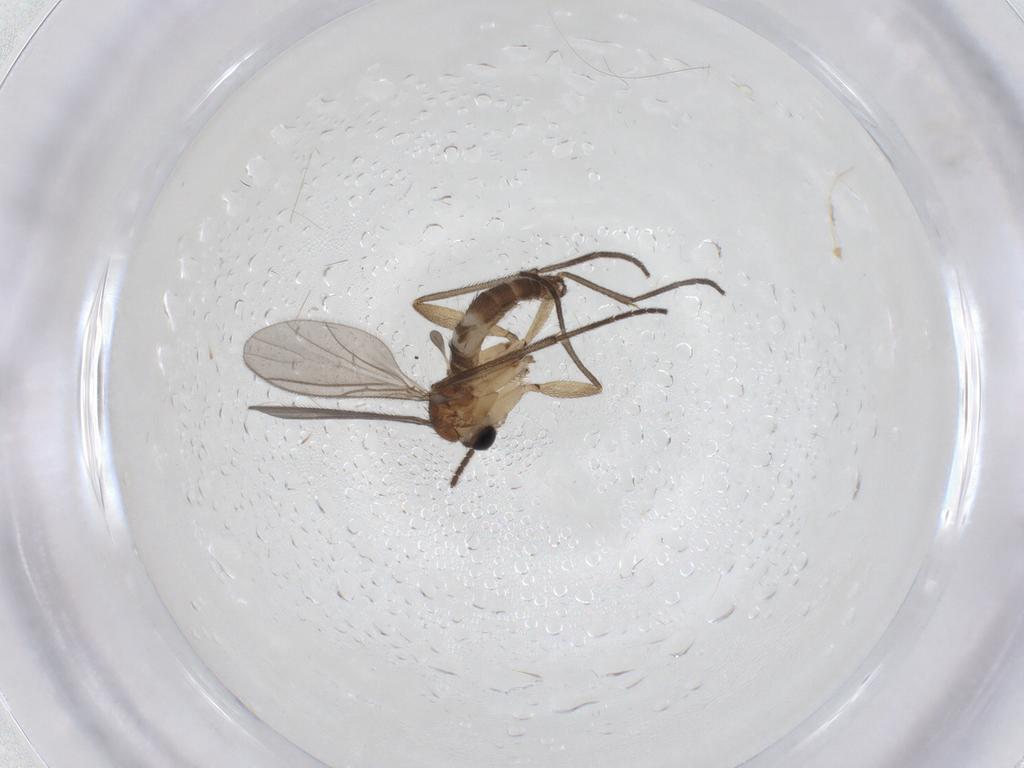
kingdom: Animalia
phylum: Arthropoda
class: Insecta
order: Diptera
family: Sciaridae
